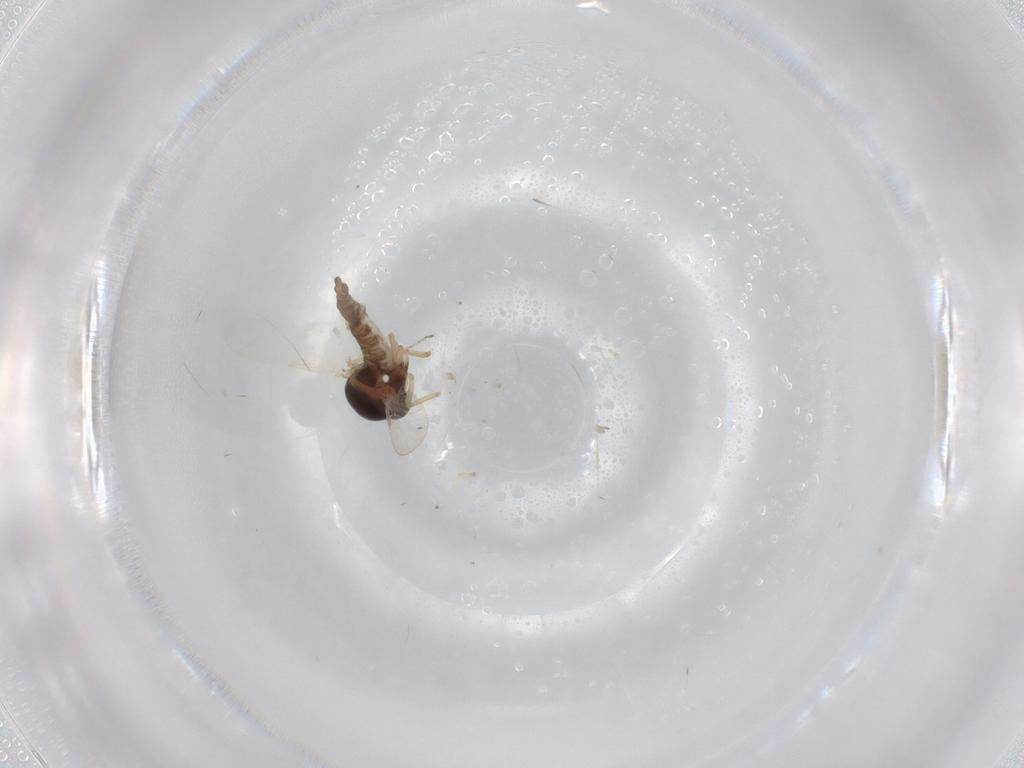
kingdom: Animalia
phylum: Arthropoda
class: Insecta
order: Diptera
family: Ceratopogonidae
